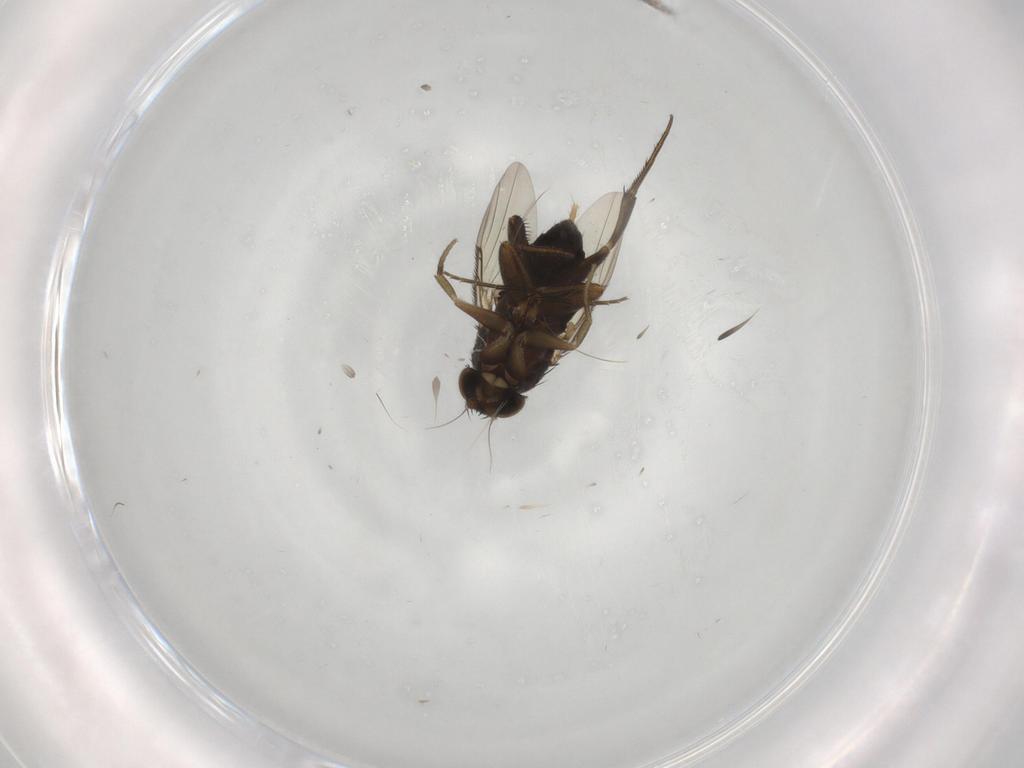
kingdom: Animalia
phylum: Arthropoda
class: Insecta
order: Diptera
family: Phoridae
